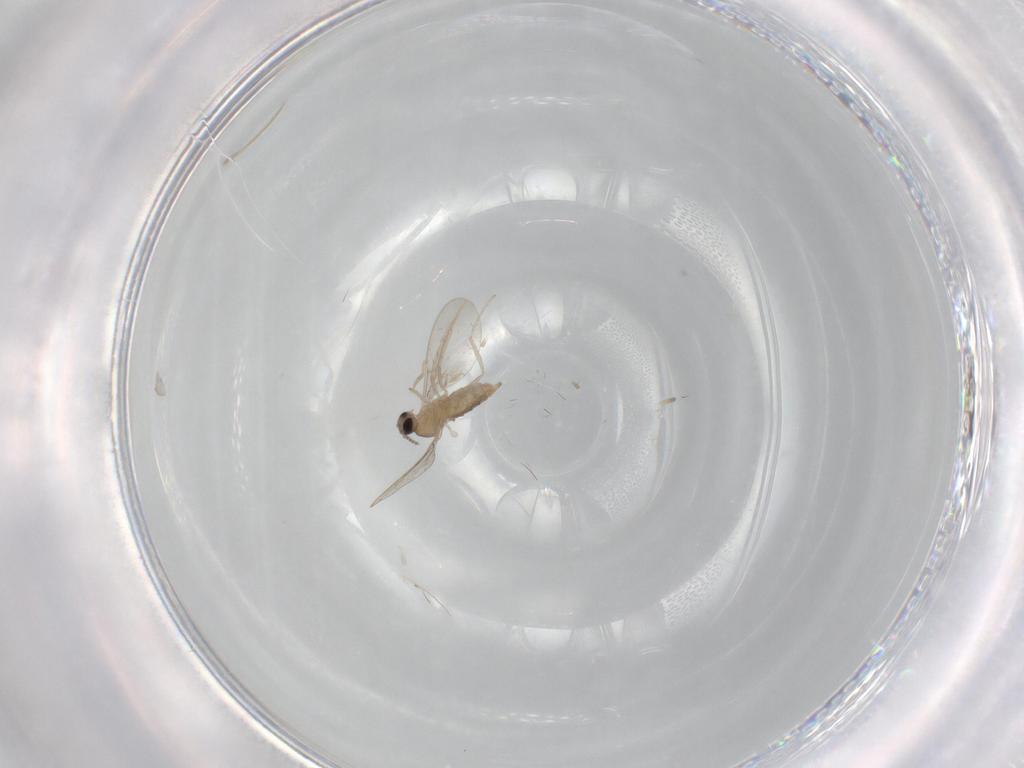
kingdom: Animalia
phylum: Arthropoda
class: Insecta
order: Diptera
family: Cecidomyiidae
